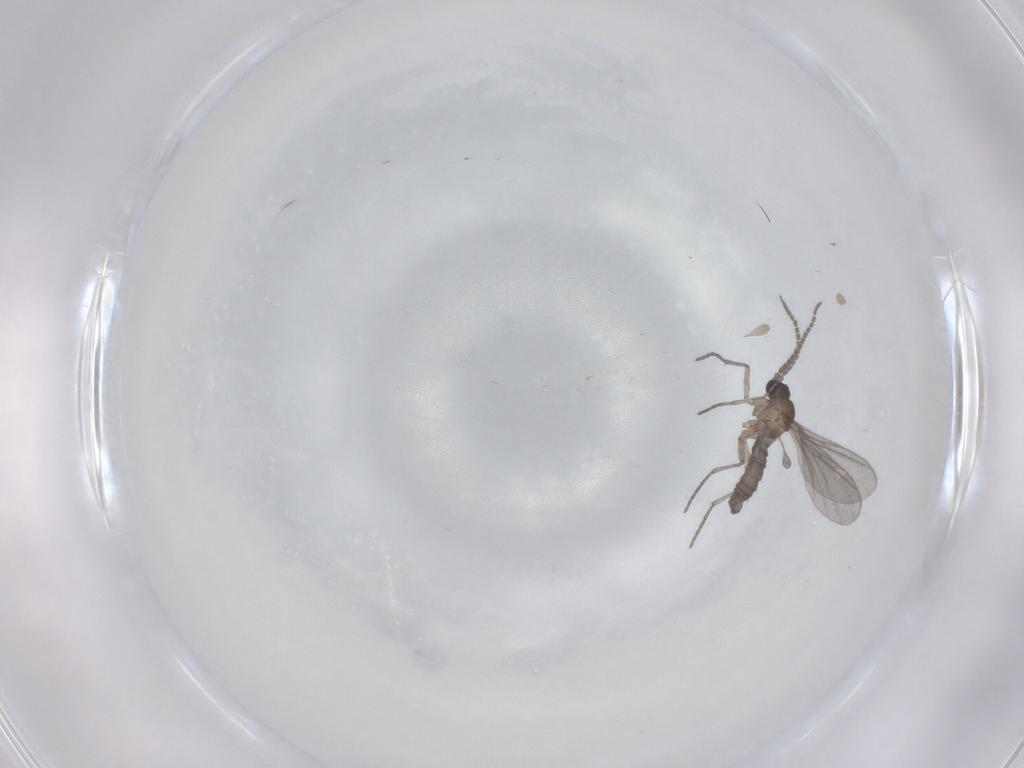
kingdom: Animalia
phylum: Arthropoda
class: Insecta
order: Diptera
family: Sciaridae
